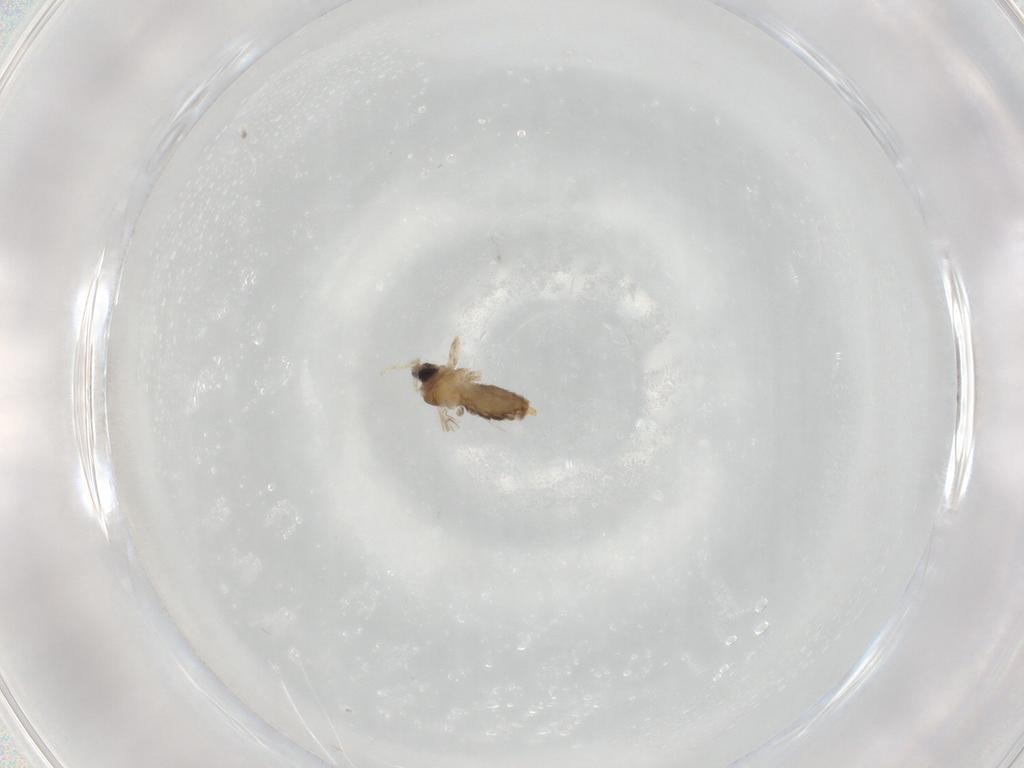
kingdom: Animalia
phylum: Arthropoda
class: Insecta
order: Diptera
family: Cecidomyiidae
